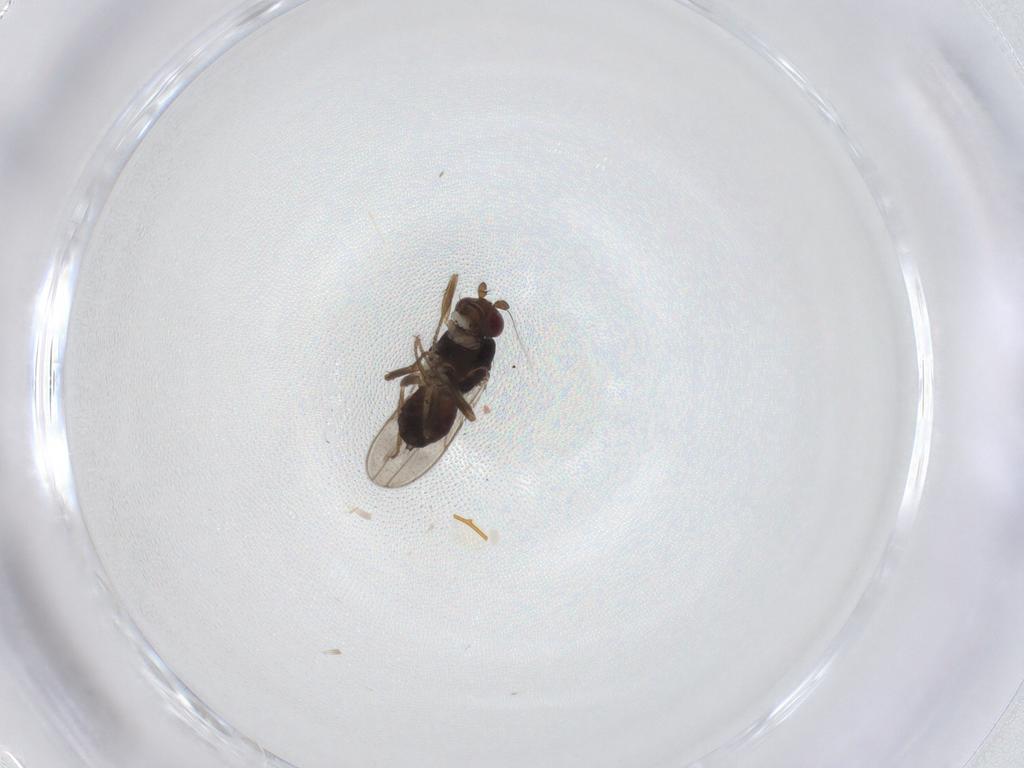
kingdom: Animalia
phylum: Arthropoda
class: Insecta
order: Diptera
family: Sphaeroceridae
